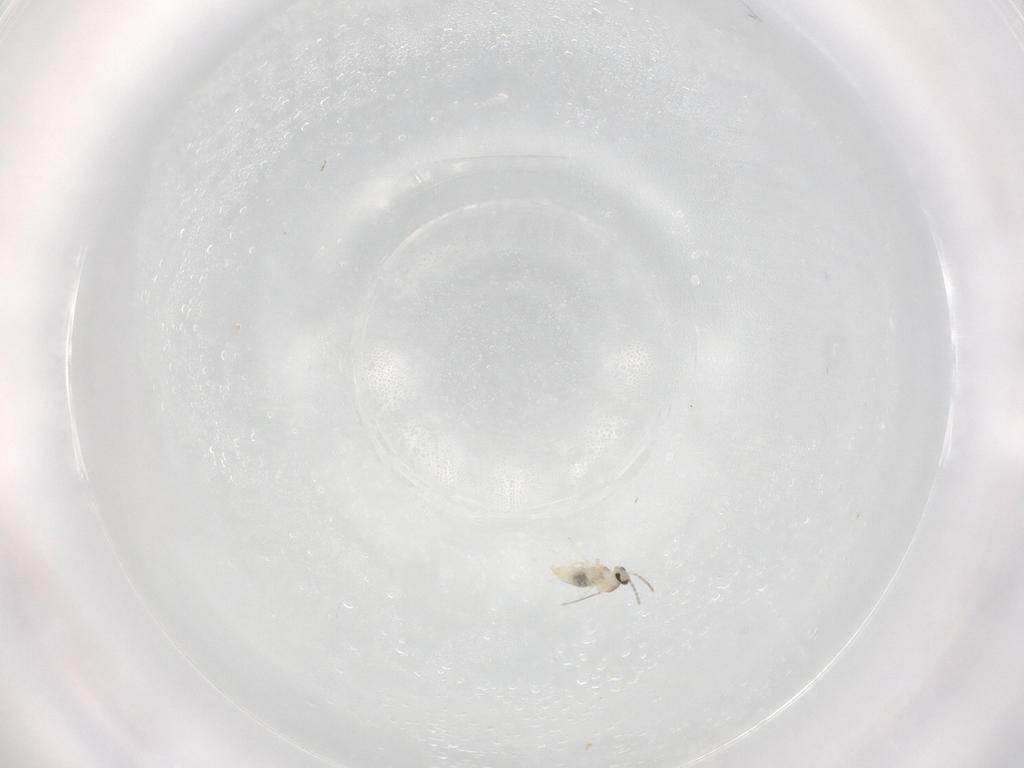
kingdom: Animalia
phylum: Arthropoda
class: Insecta
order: Diptera
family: Cecidomyiidae
